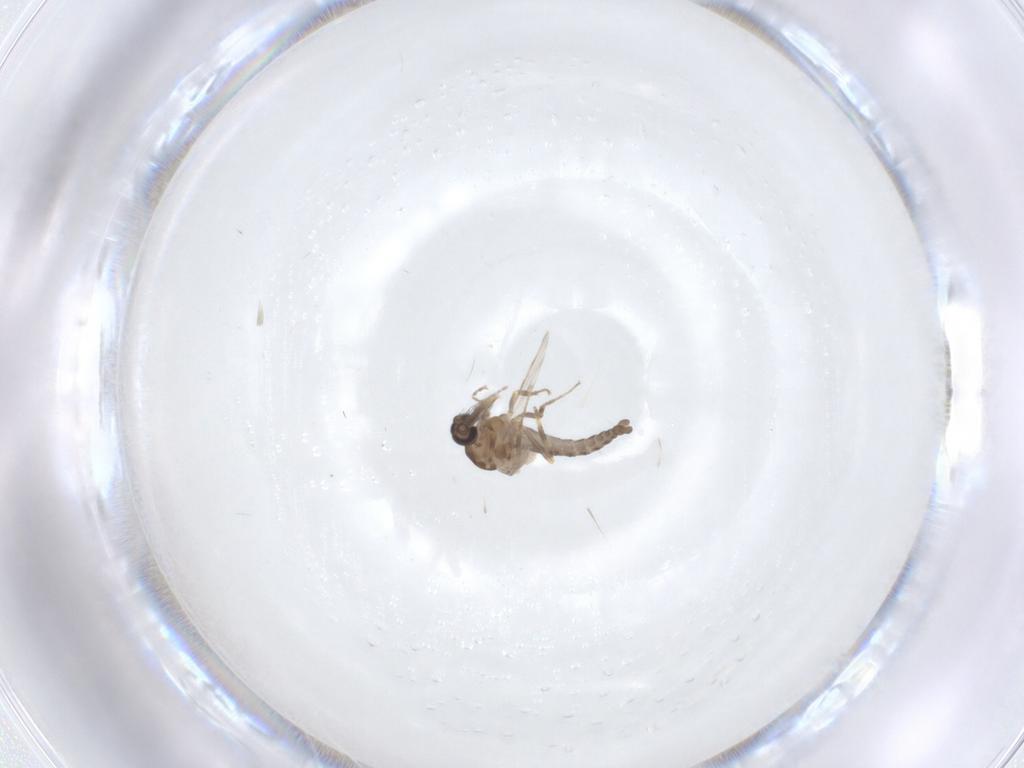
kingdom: Animalia
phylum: Arthropoda
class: Insecta
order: Diptera
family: Ceratopogonidae
